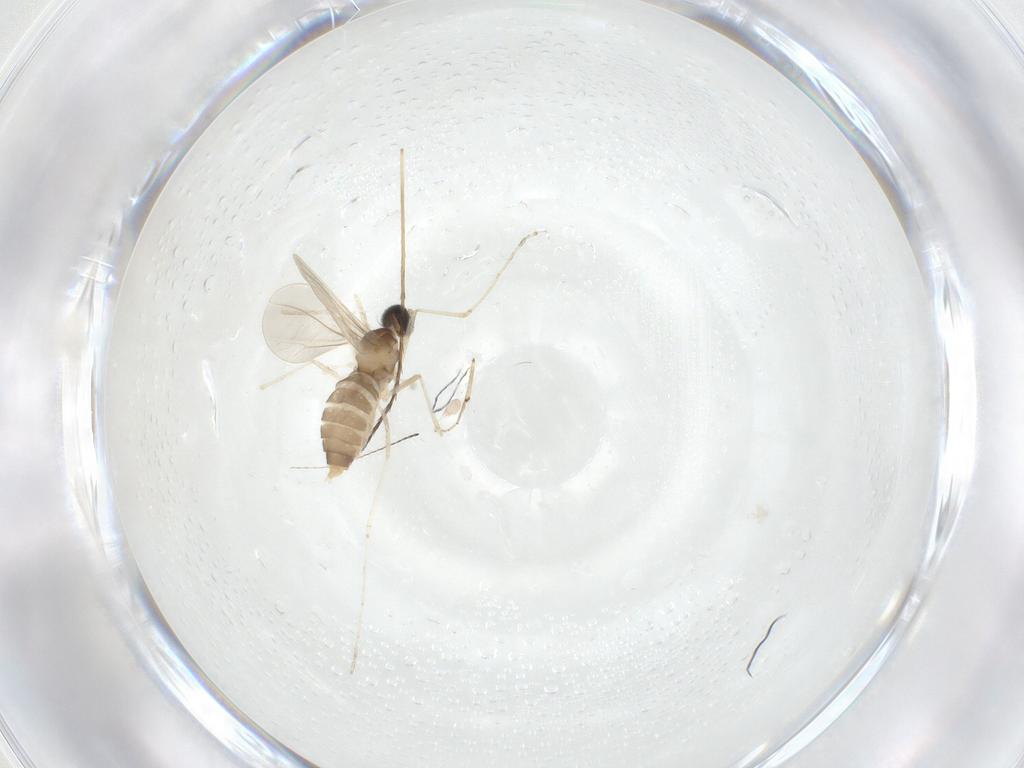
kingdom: Animalia
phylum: Arthropoda
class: Insecta
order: Diptera
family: Cecidomyiidae
